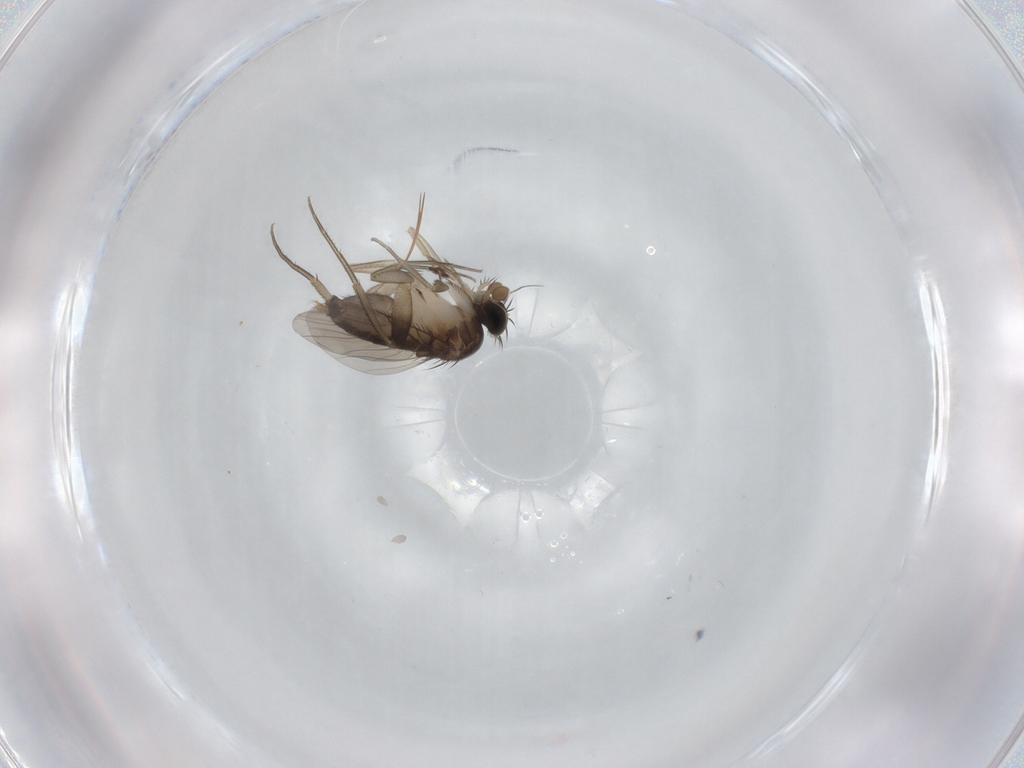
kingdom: Animalia
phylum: Arthropoda
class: Insecta
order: Diptera
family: Phoridae
